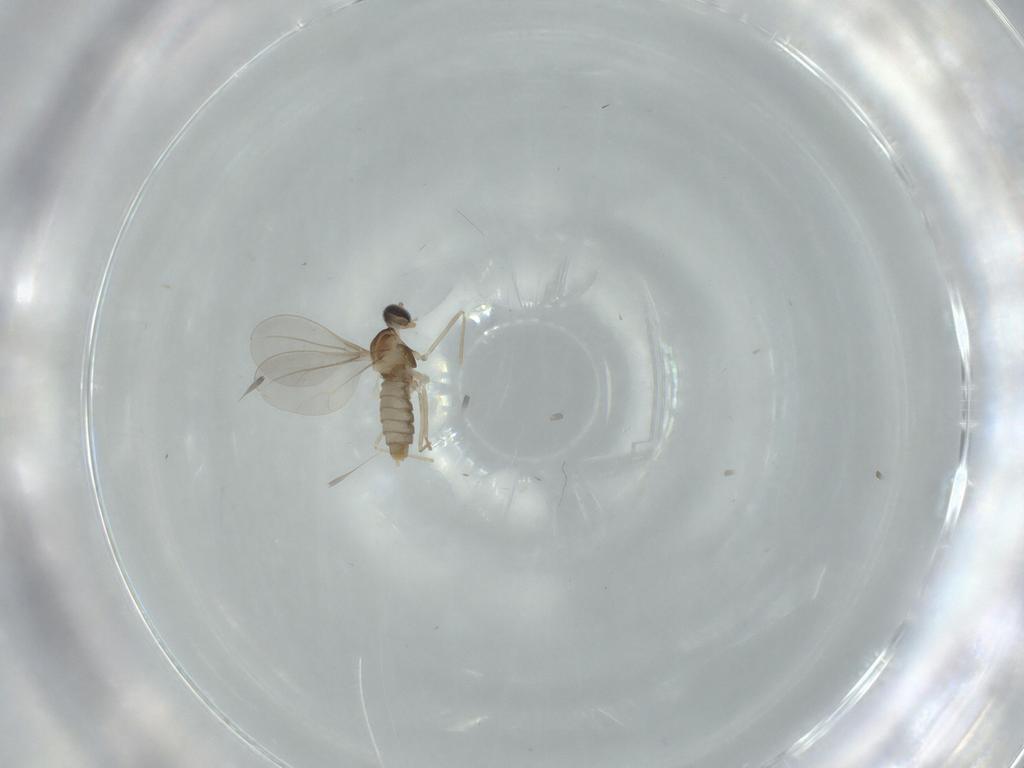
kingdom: Animalia
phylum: Arthropoda
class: Insecta
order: Diptera
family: Cecidomyiidae
